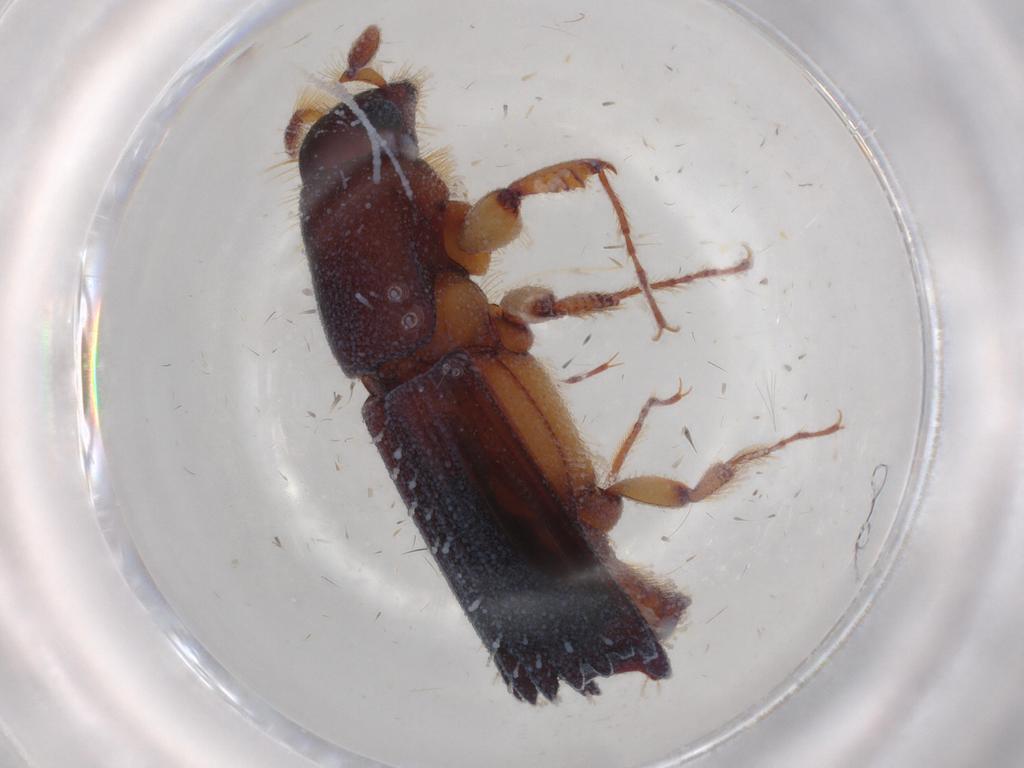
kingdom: Animalia
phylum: Arthropoda
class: Insecta
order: Coleoptera
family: Curculionidae
